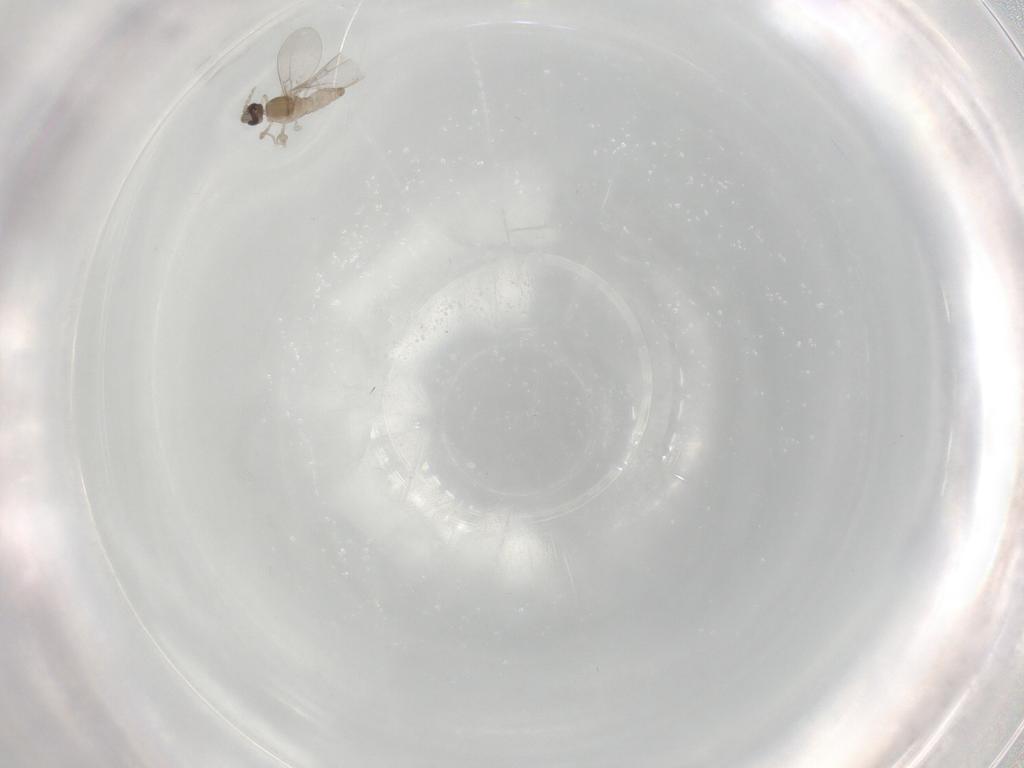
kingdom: Animalia
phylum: Arthropoda
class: Insecta
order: Diptera
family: Cecidomyiidae
